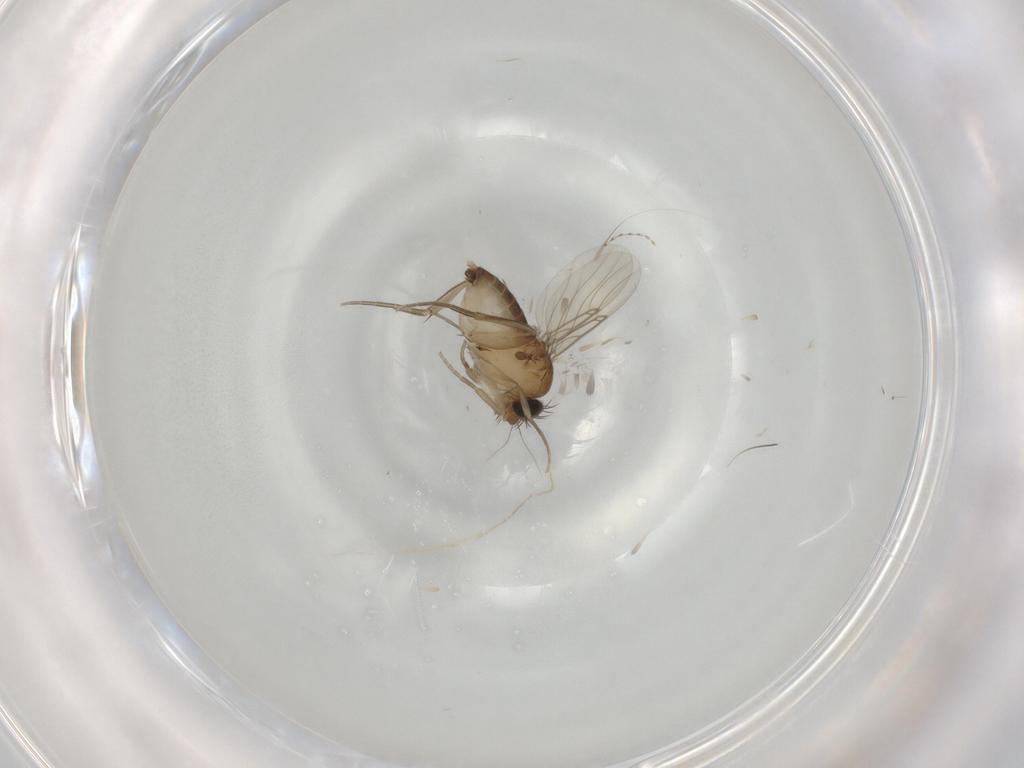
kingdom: Animalia
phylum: Arthropoda
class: Insecta
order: Diptera
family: Phoridae
